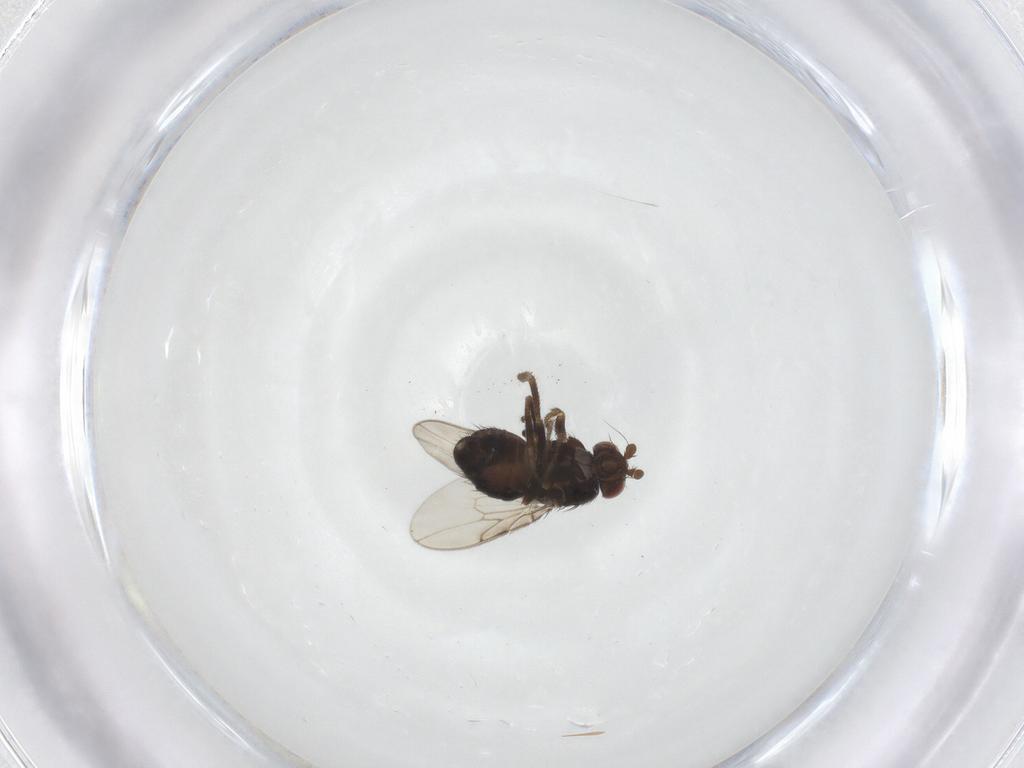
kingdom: Animalia
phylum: Arthropoda
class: Insecta
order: Diptera
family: Sphaeroceridae
